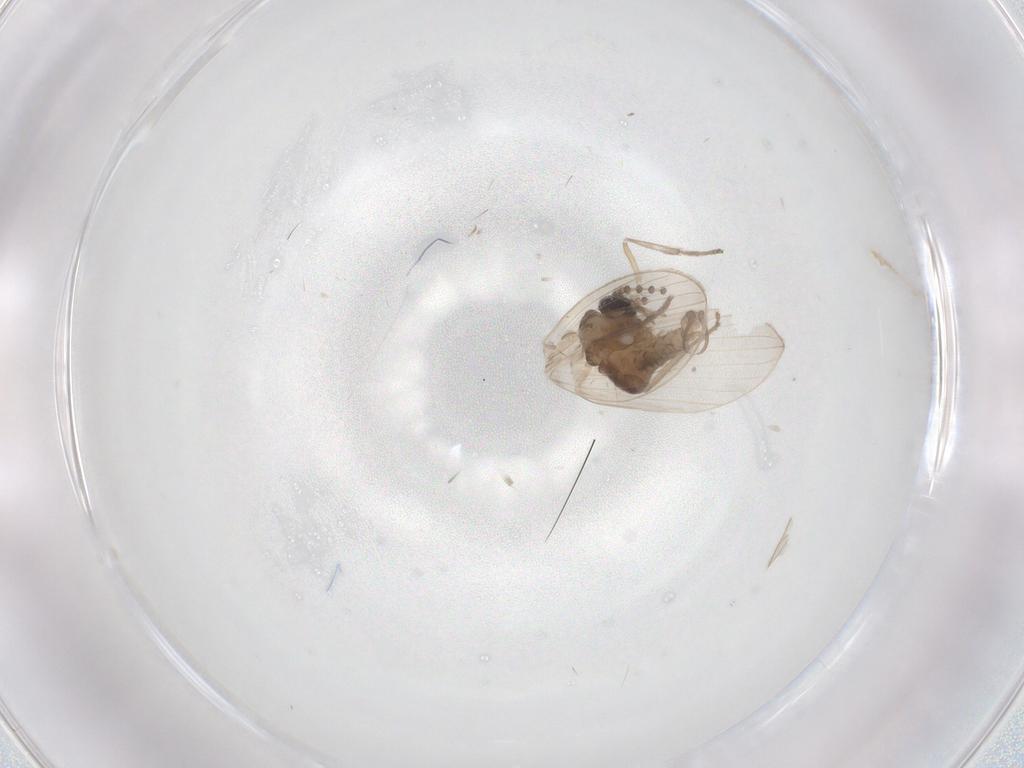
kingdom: Animalia
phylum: Arthropoda
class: Insecta
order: Diptera
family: Psychodidae
